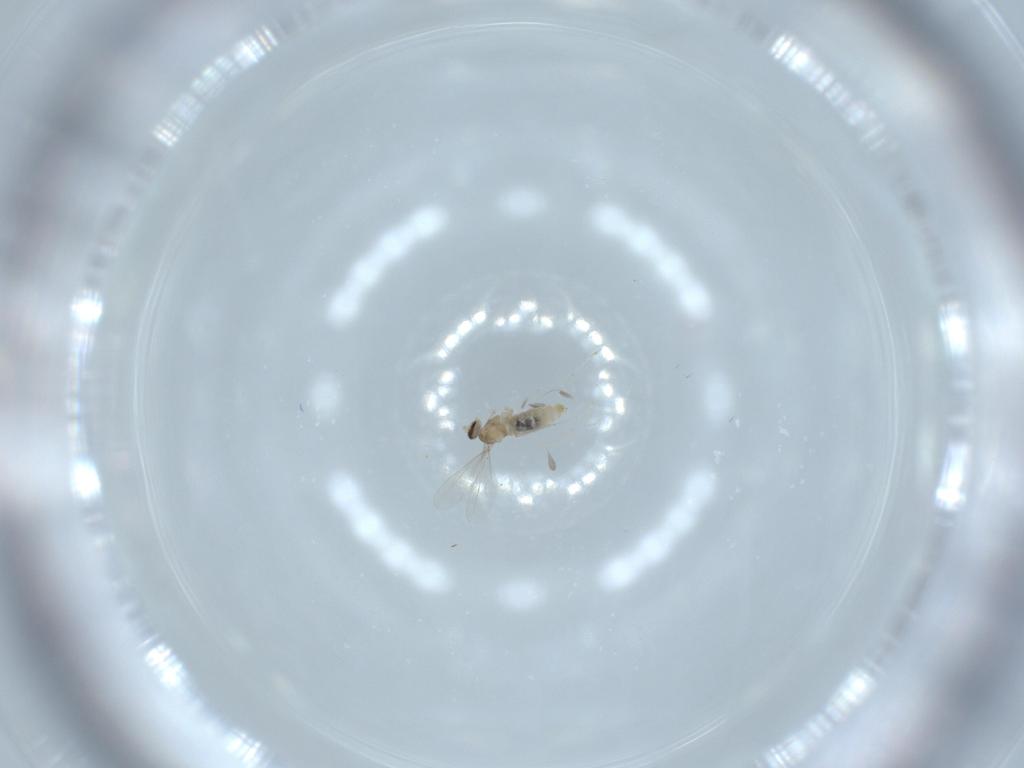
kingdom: Animalia
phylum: Arthropoda
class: Insecta
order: Diptera
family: Cecidomyiidae
